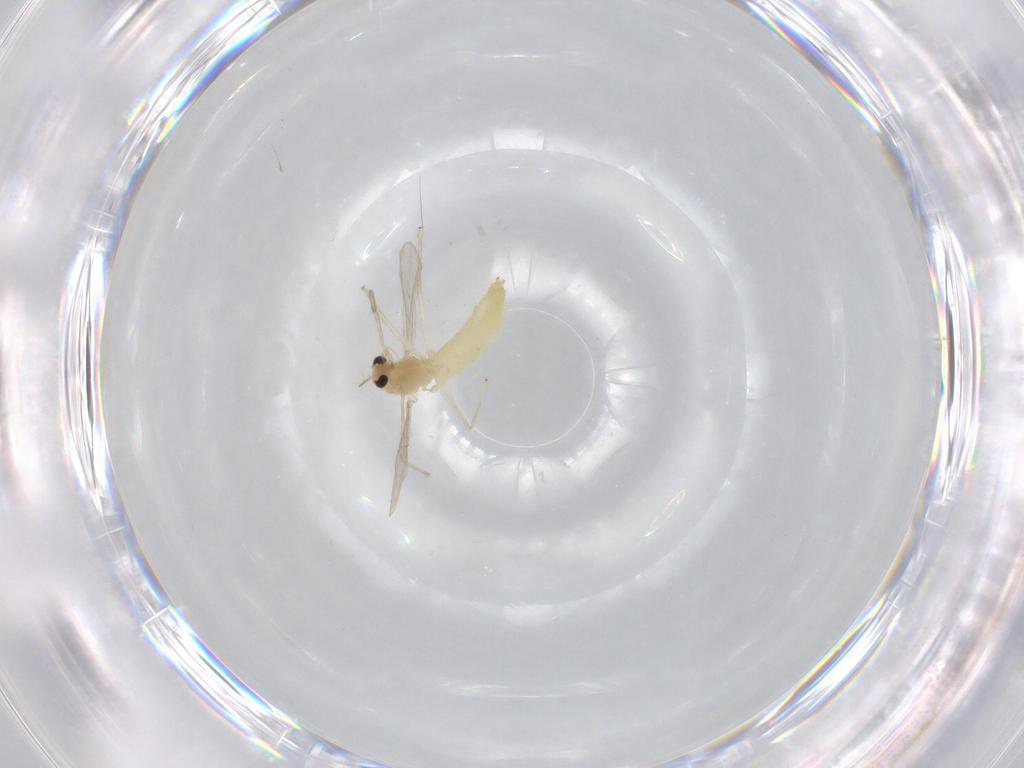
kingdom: Animalia
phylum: Arthropoda
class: Insecta
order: Diptera
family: Chironomidae
